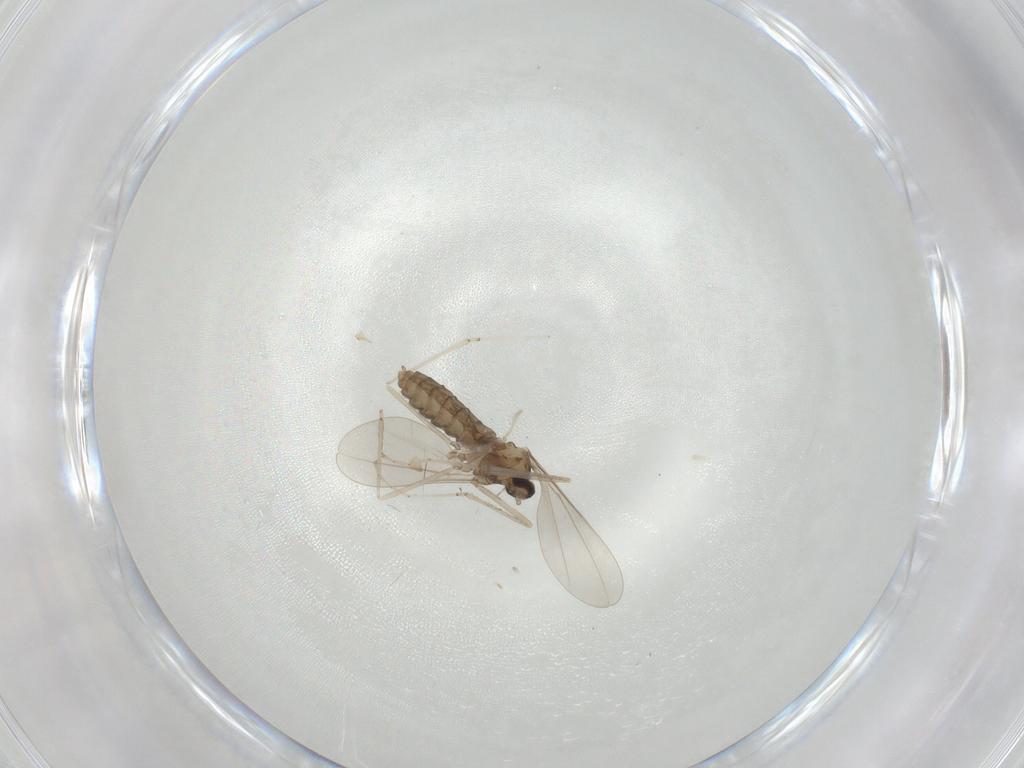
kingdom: Animalia
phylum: Arthropoda
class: Insecta
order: Diptera
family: Cecidomyiidae
